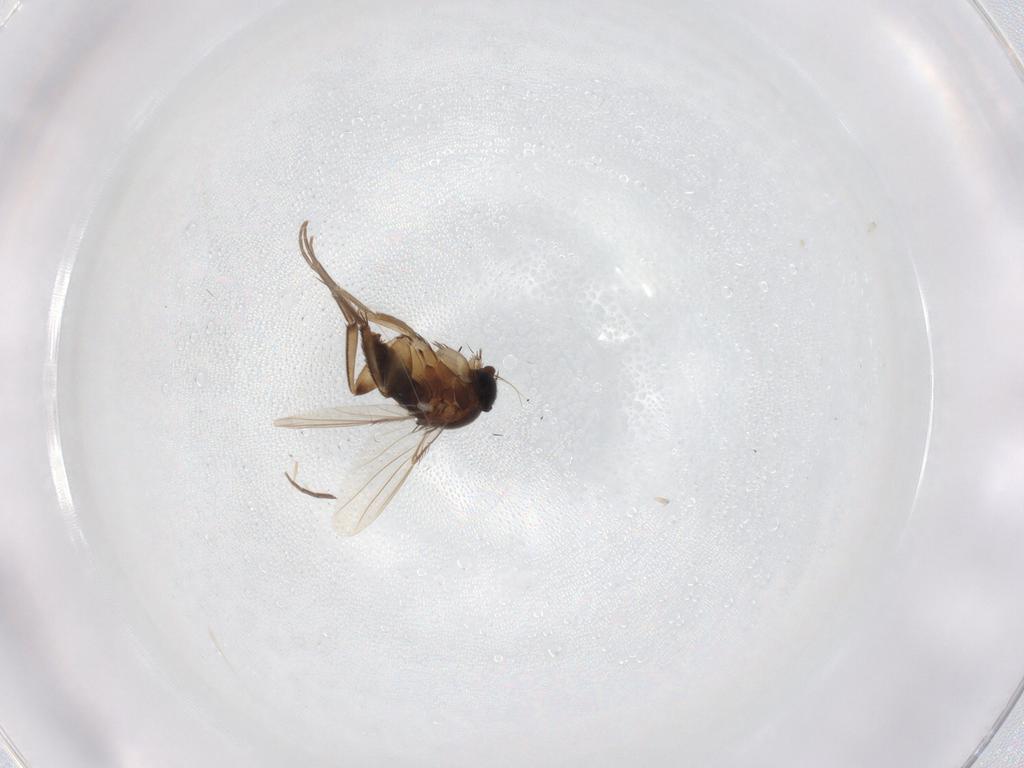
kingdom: Animalia
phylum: Arthropoda
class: Insecta
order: Diptera
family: Phoridae
